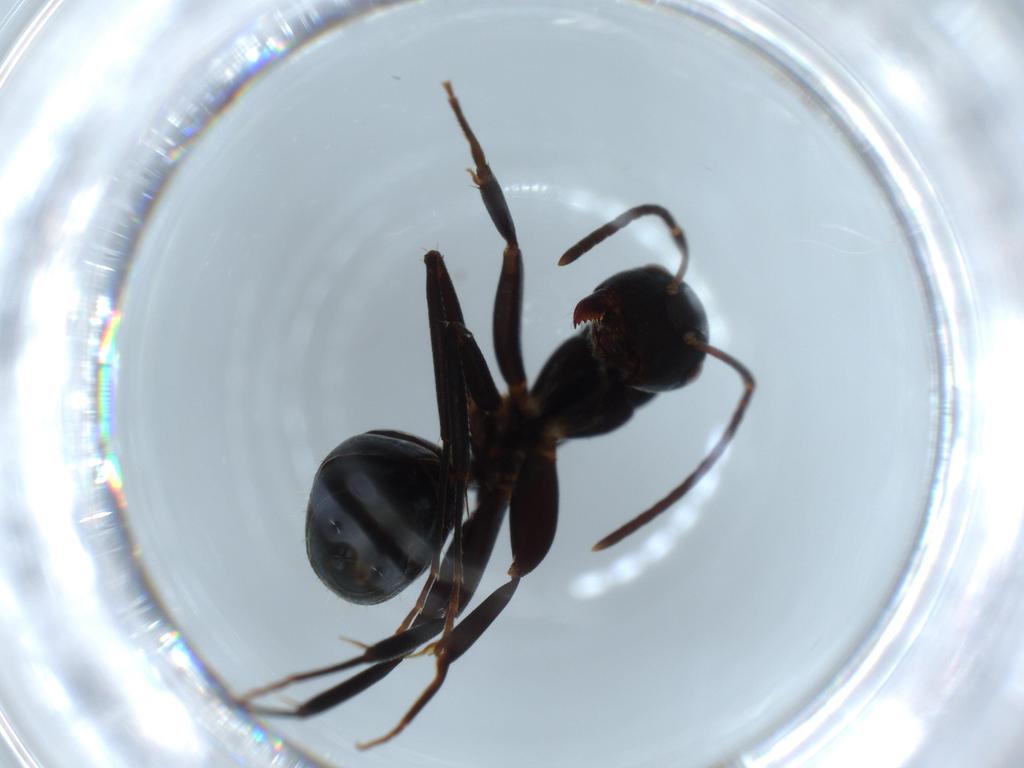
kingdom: Animalia
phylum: Arthropoda
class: Insecta
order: Hymenoptera
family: Formicidae
